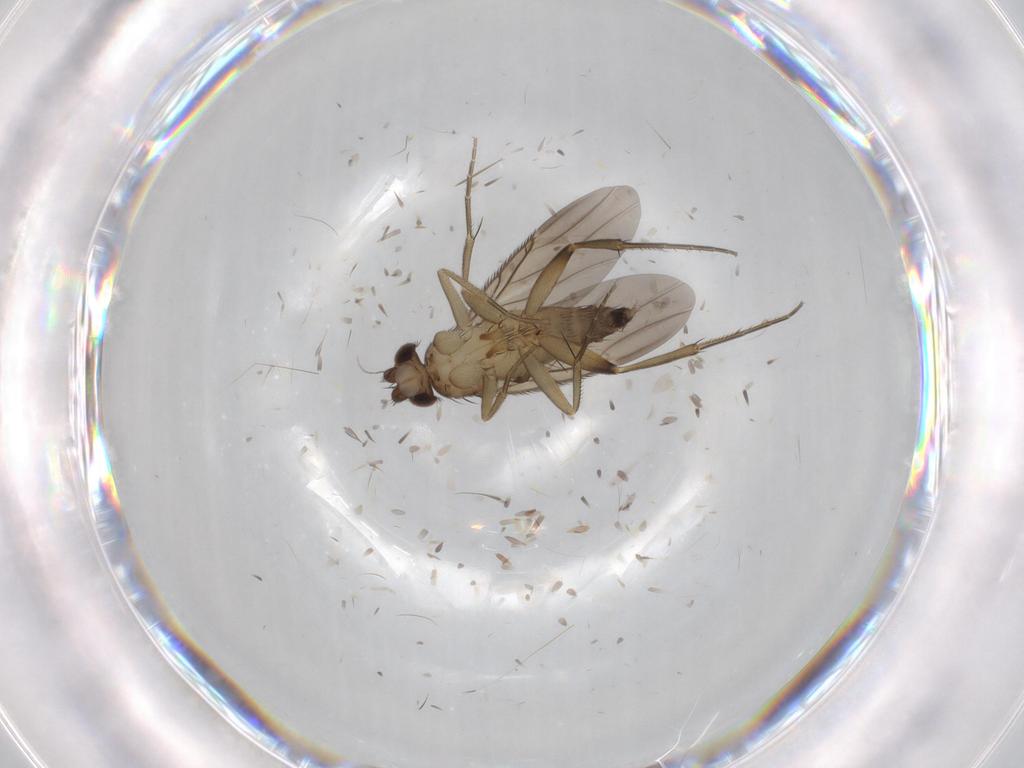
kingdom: Animalia
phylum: Arthropoda
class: Insecta
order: Diptera
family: Phoridae
